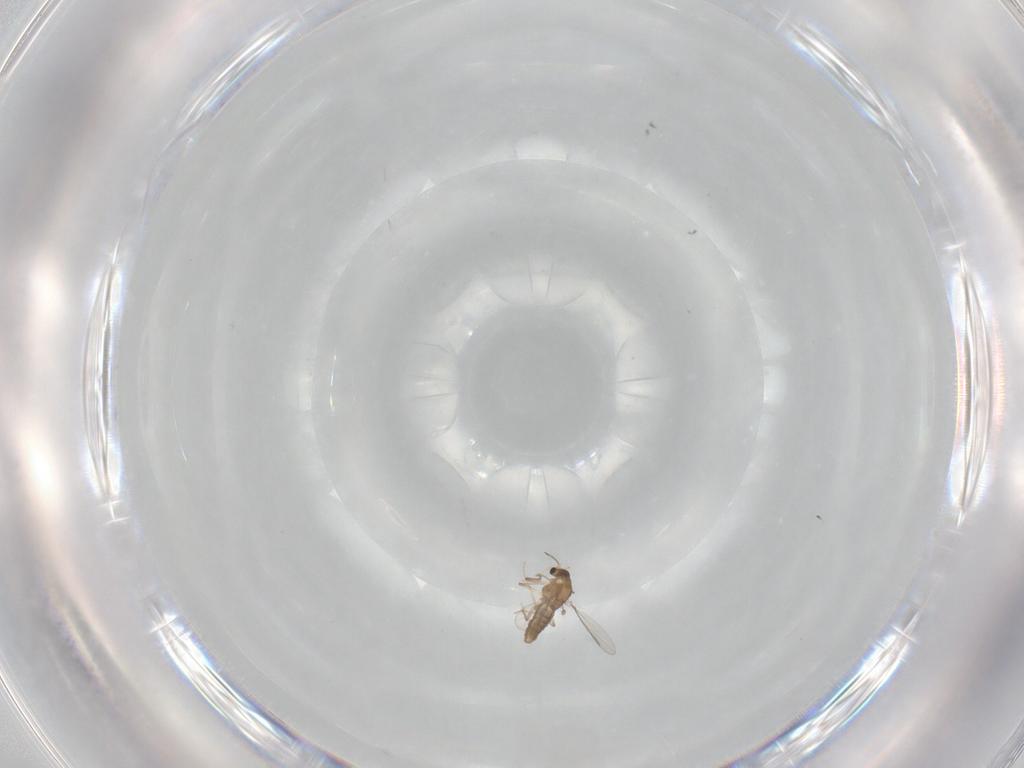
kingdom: Animalia
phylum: Arthropoda
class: Insecta
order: Diptera
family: Chironomidae
